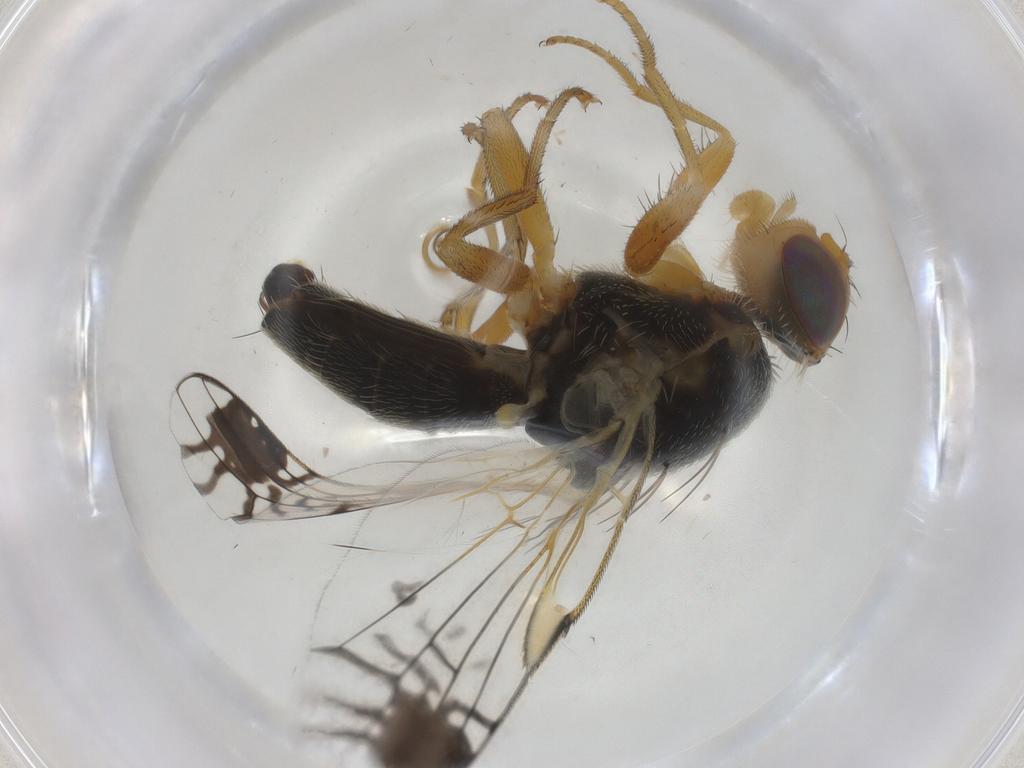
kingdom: Animalia
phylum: Arthropoda
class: Insecta
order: Diptera
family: Tephritidae
